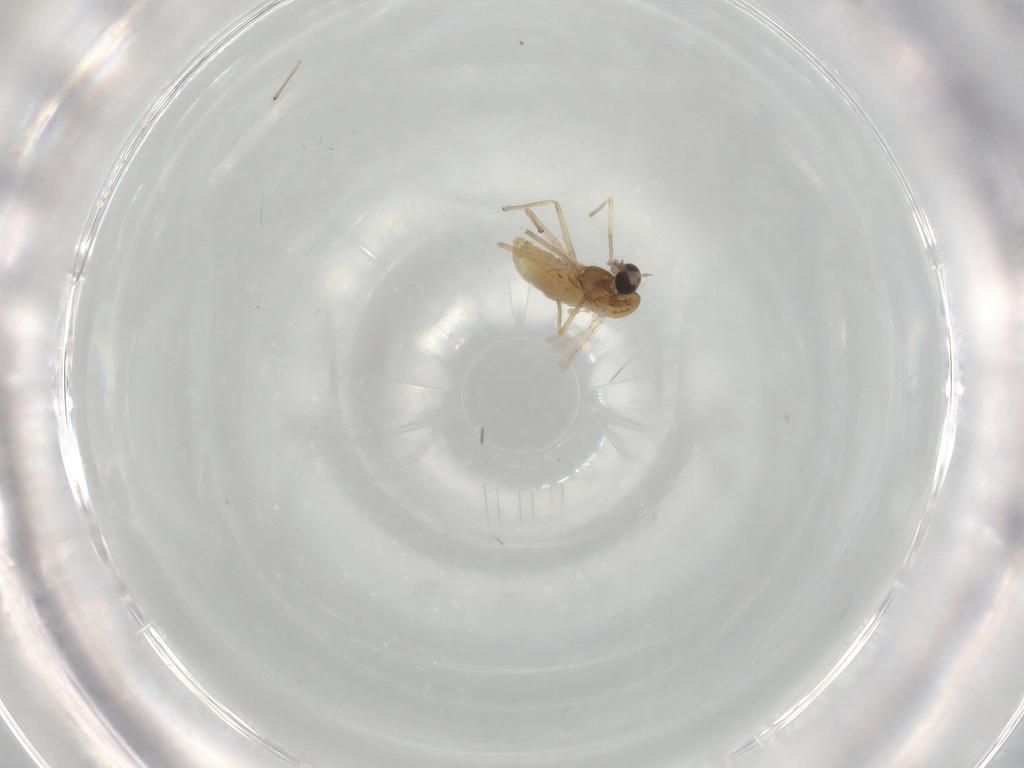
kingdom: Animalia
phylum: Arthropoda
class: Insecta
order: Diptera
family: Chironomidae
